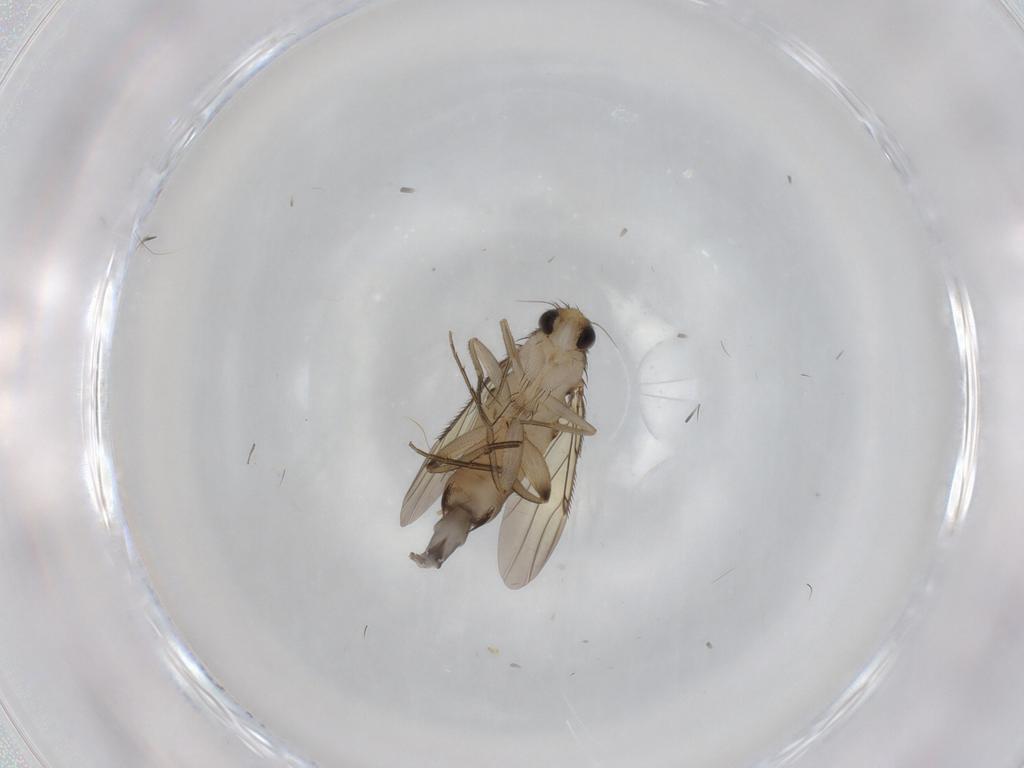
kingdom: Animalia
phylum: Arthropoda
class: Insecta
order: Diptera
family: Phoridae
